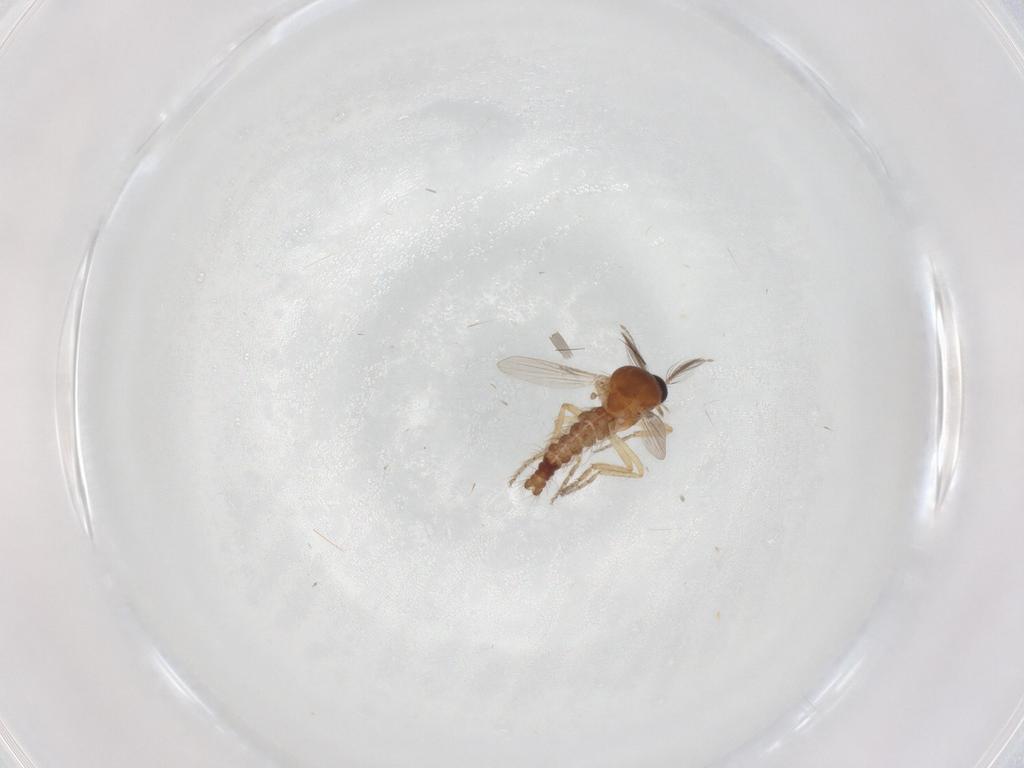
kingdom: Animalia
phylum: Arthropoda
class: Insecta
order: Diptera
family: Ceratopogonidae
